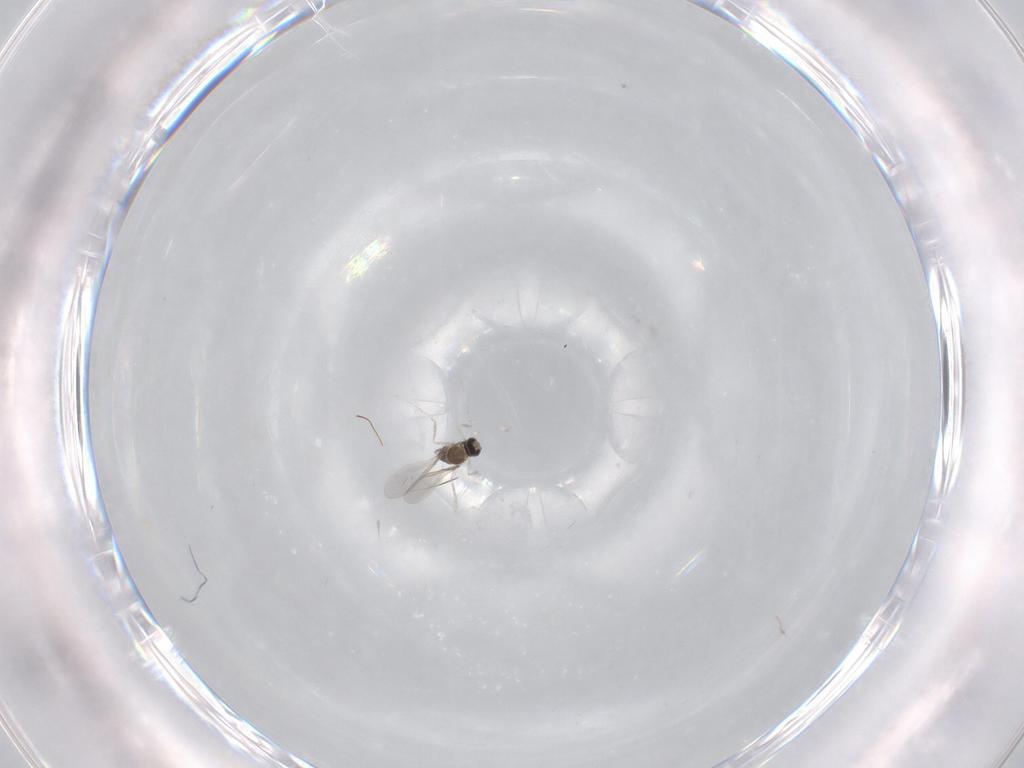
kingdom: Animalia
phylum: Arthropoda
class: Insecta
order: Diptera
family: Cecidomyiidae
